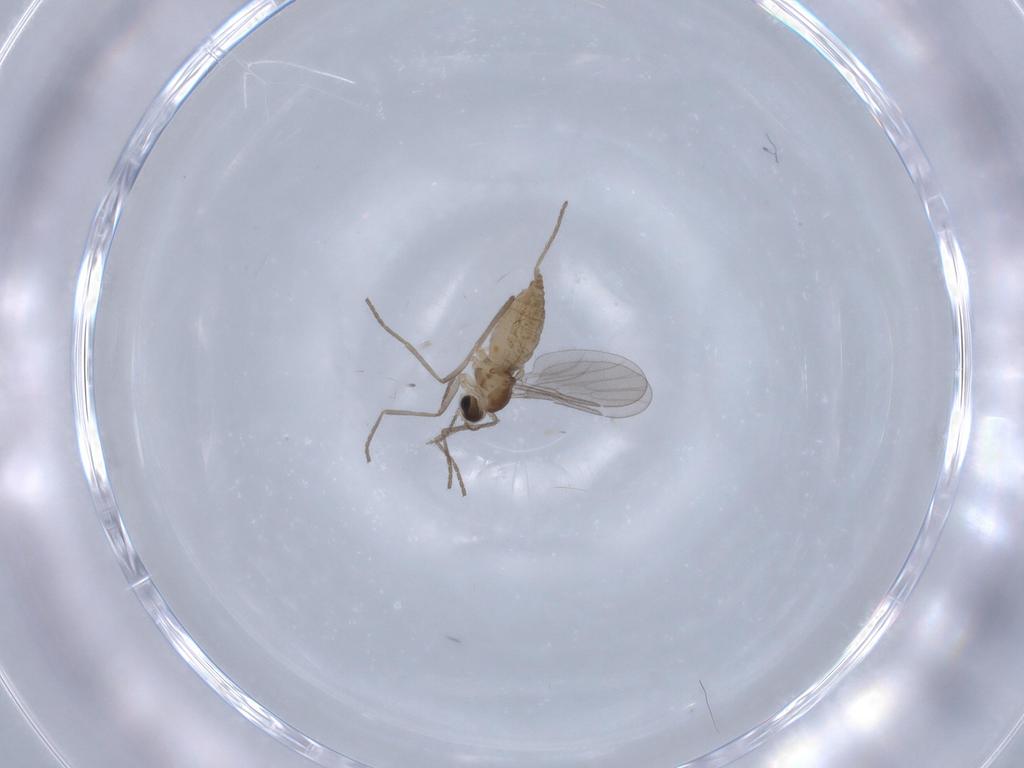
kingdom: Animalia
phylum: Arthropoda
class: Insecta
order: Diptera
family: Cecidomyiidae
